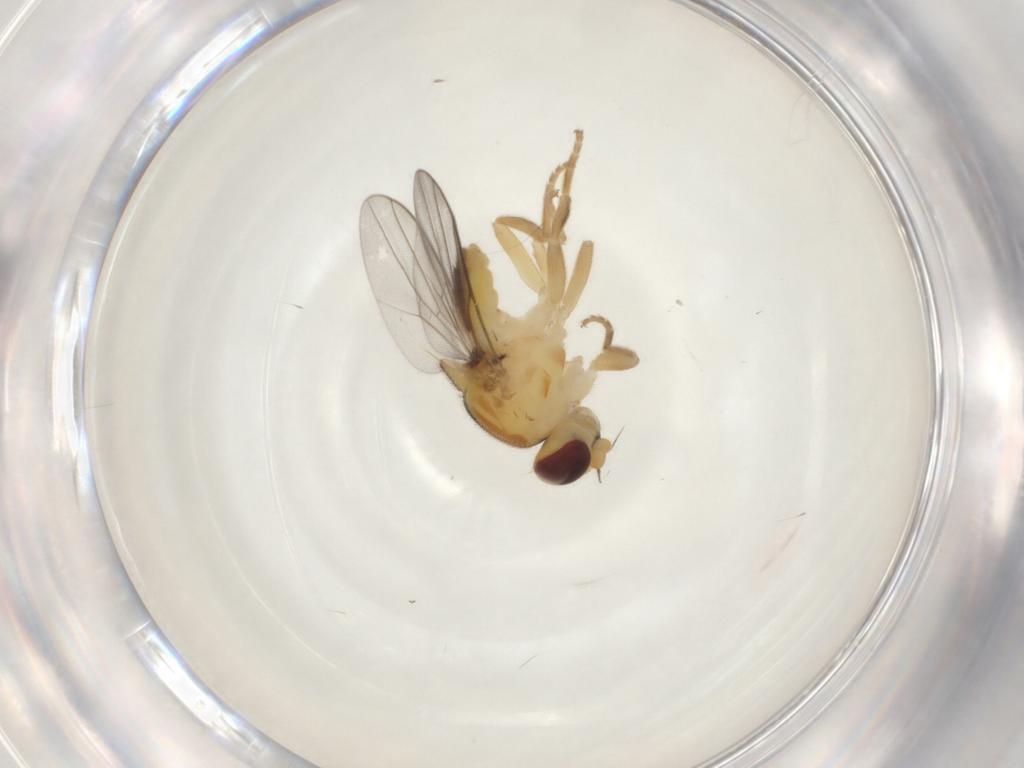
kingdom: Animalia
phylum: Arthropoda
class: Insecta
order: Diptera
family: Chloropidae
